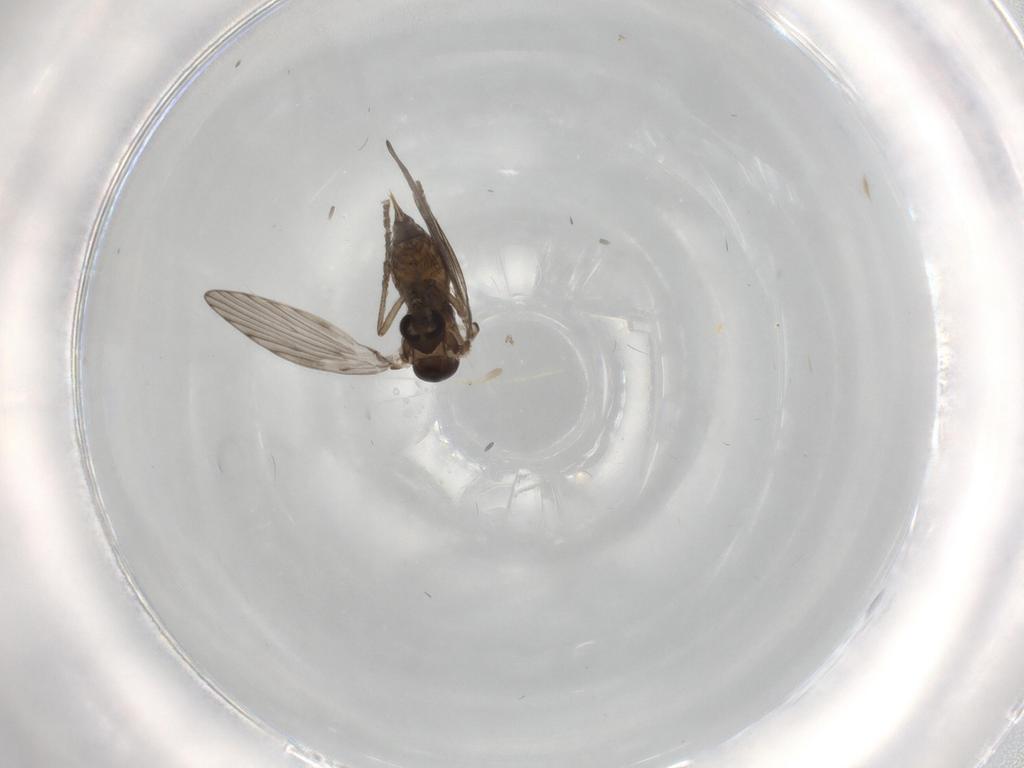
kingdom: Animalia
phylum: Arthropoda
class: Insecta
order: Diptera
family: Psychodidae
